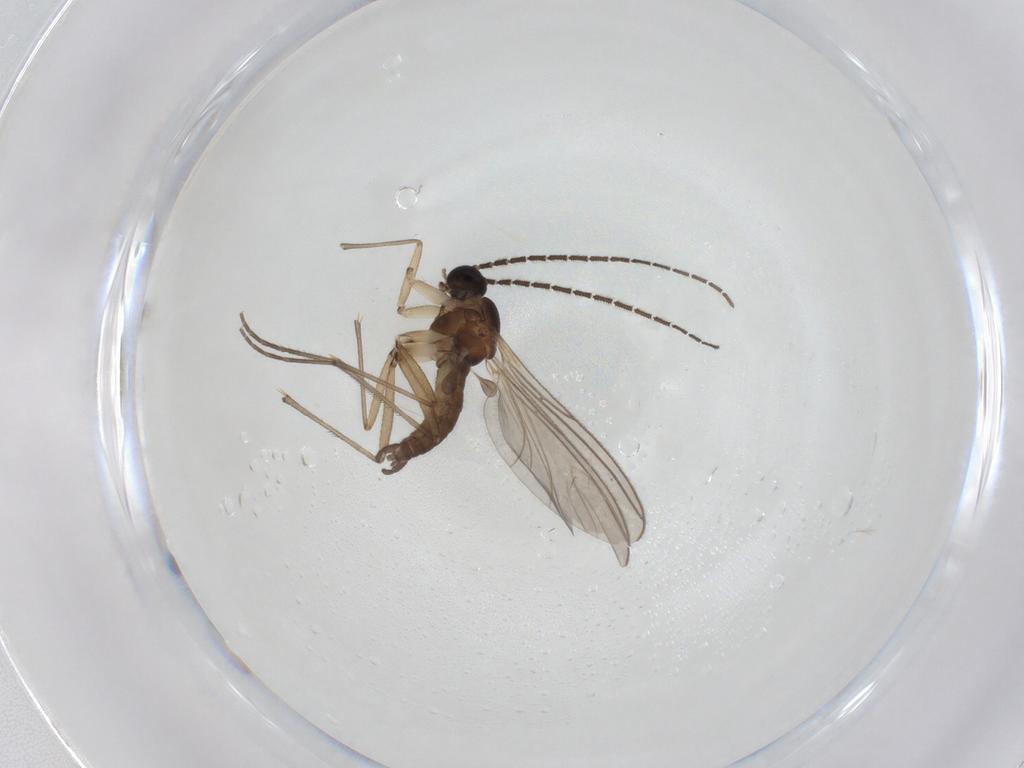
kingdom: Animalia
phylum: Arthropoda
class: Insecta
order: Diptera
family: Sciaridae
